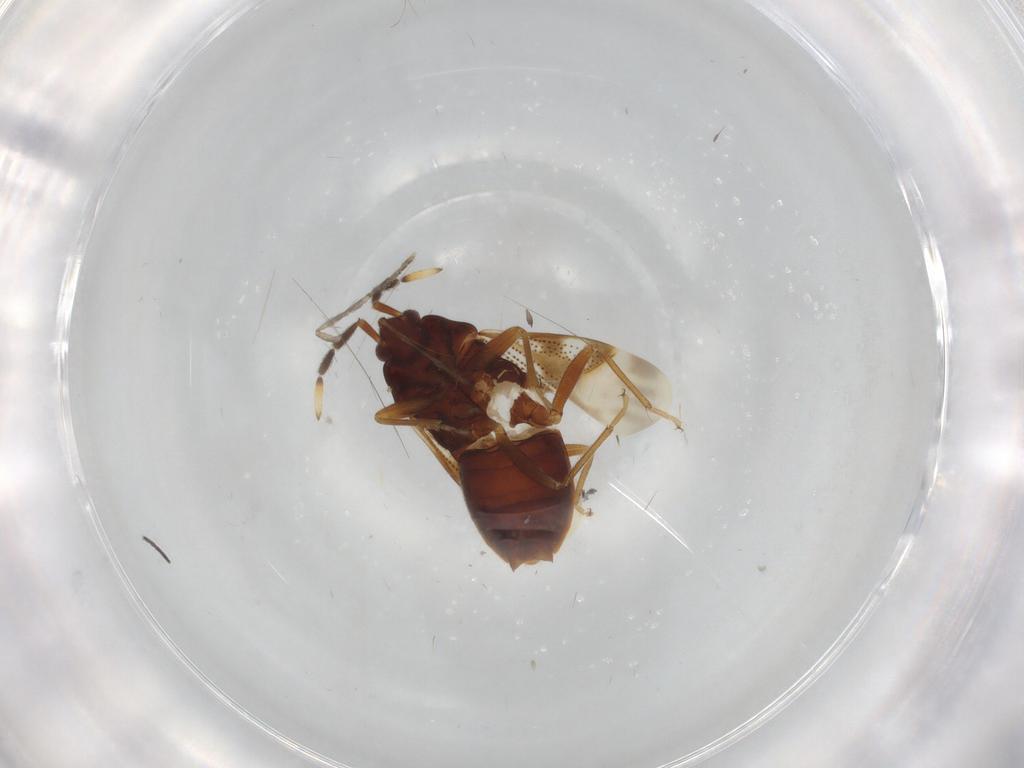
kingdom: Animalia
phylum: Arthropoda
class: Insecta
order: Hemiptera
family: Rhyparochromidae
